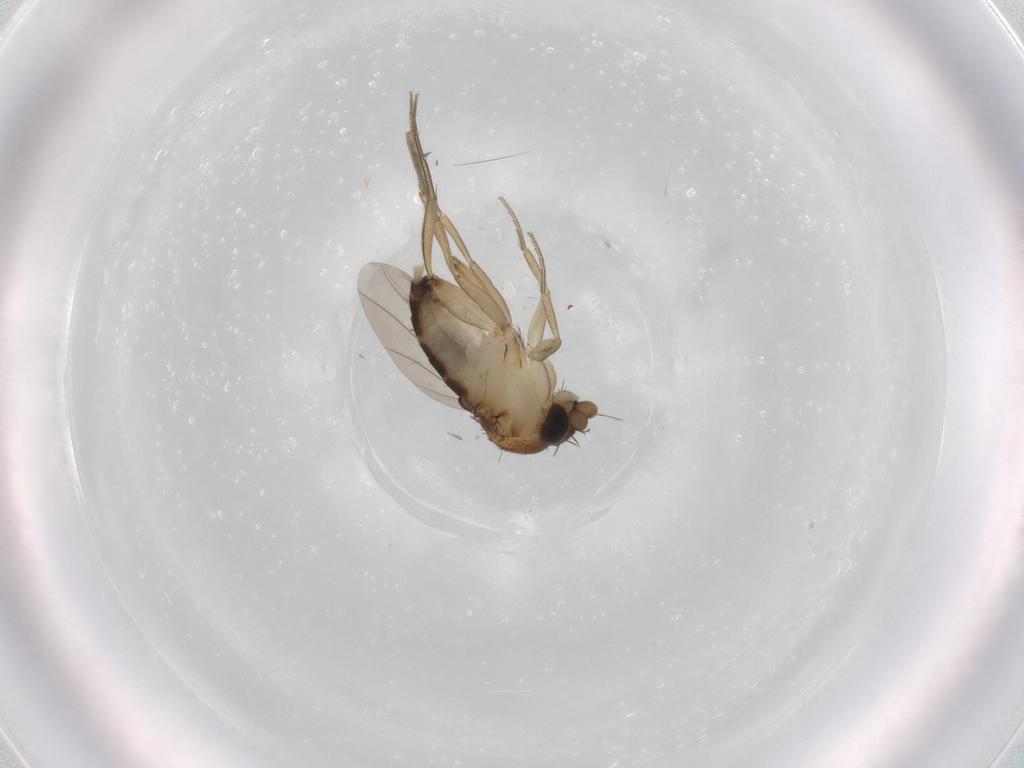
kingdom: Animalia
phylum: Arthropoda
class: Insecta
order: Diptera
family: Phoridae
